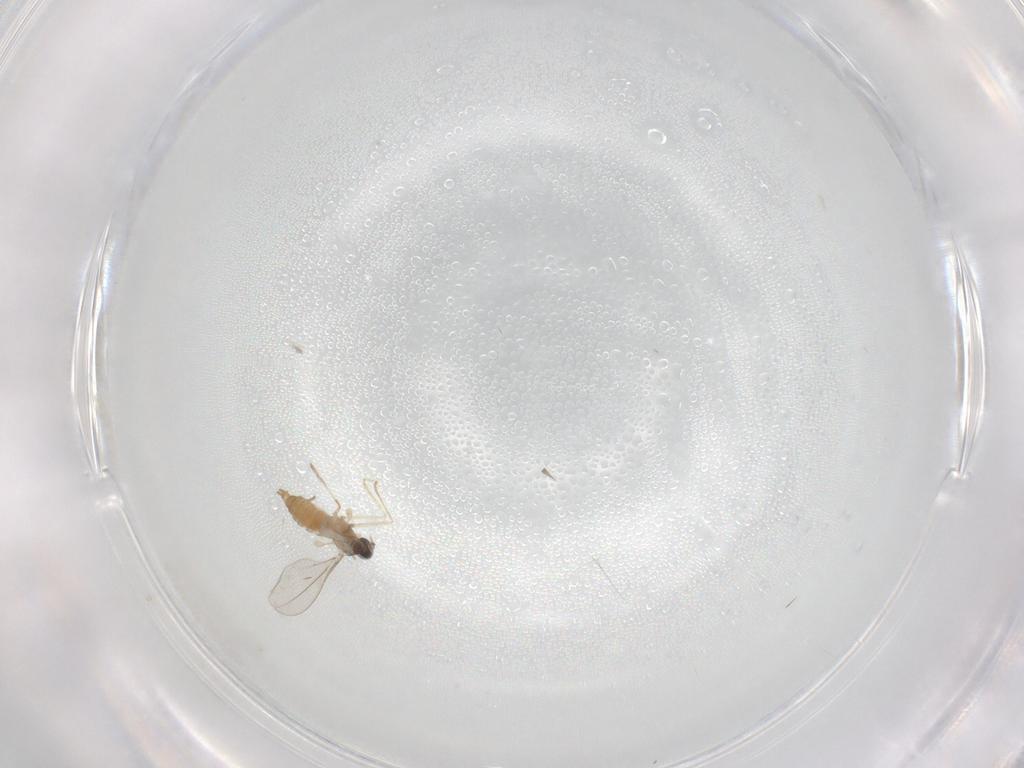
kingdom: Animalia
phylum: Arthropoda
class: Insecta
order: Diptera
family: Cecidomyiidae
